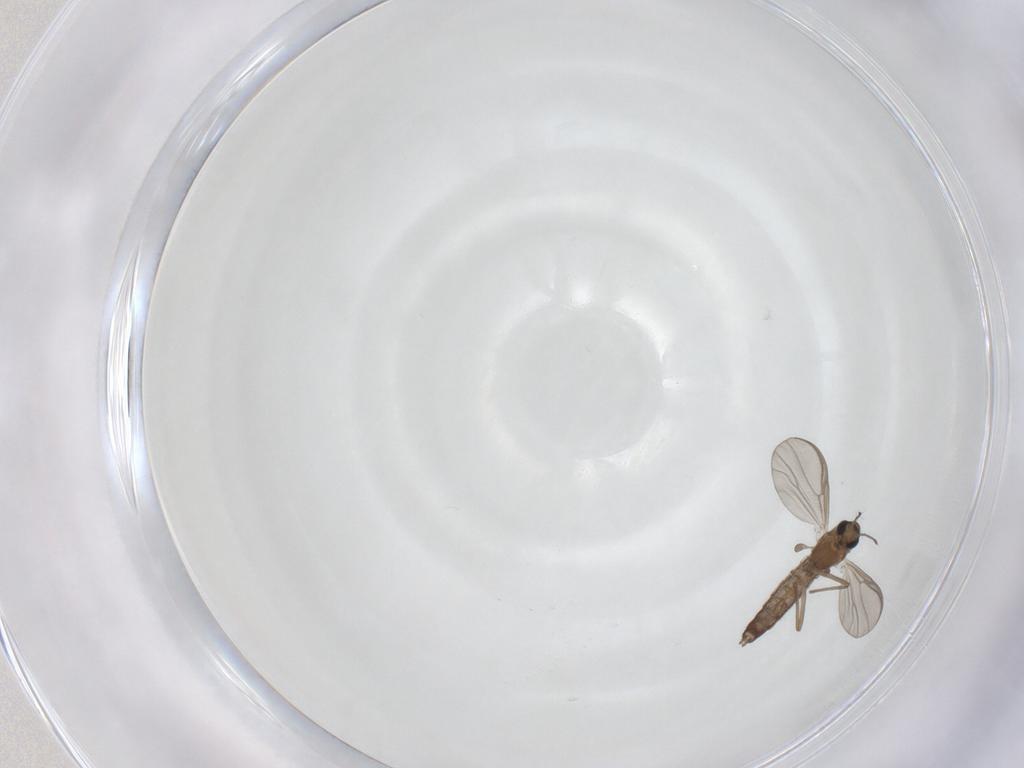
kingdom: Animalia
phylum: Arthropoda
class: Insecta
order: Diptera
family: Chironomidae
